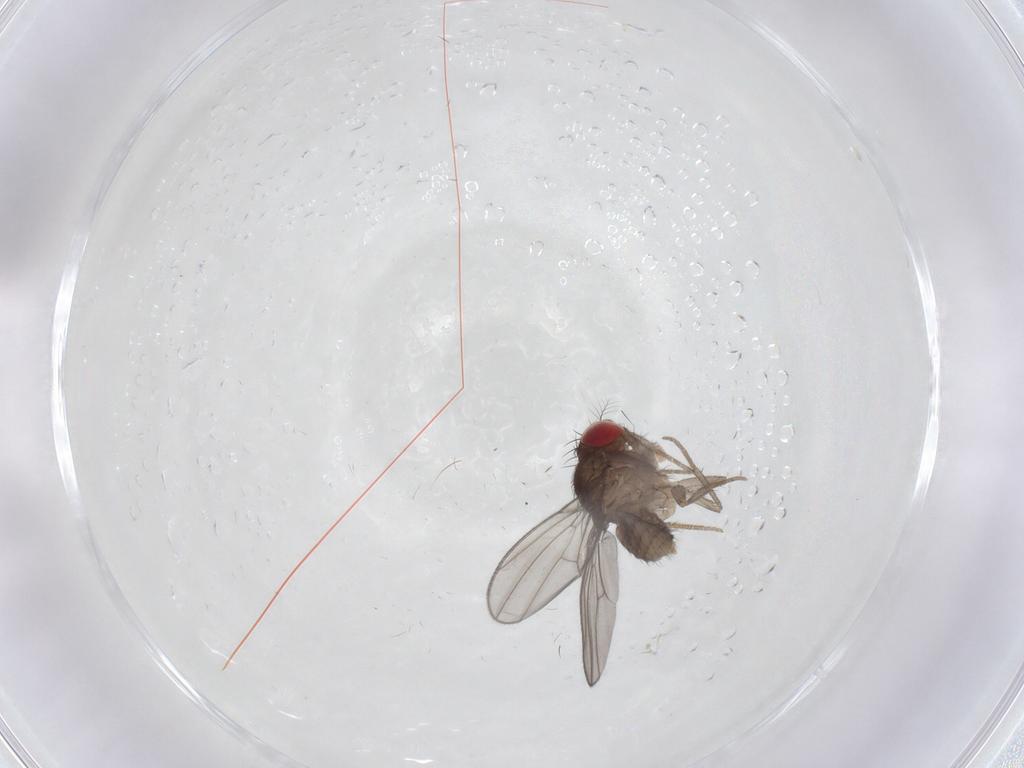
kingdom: Animalia
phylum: Arthropoda
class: Insecta
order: Diptera
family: Drosophilidae
